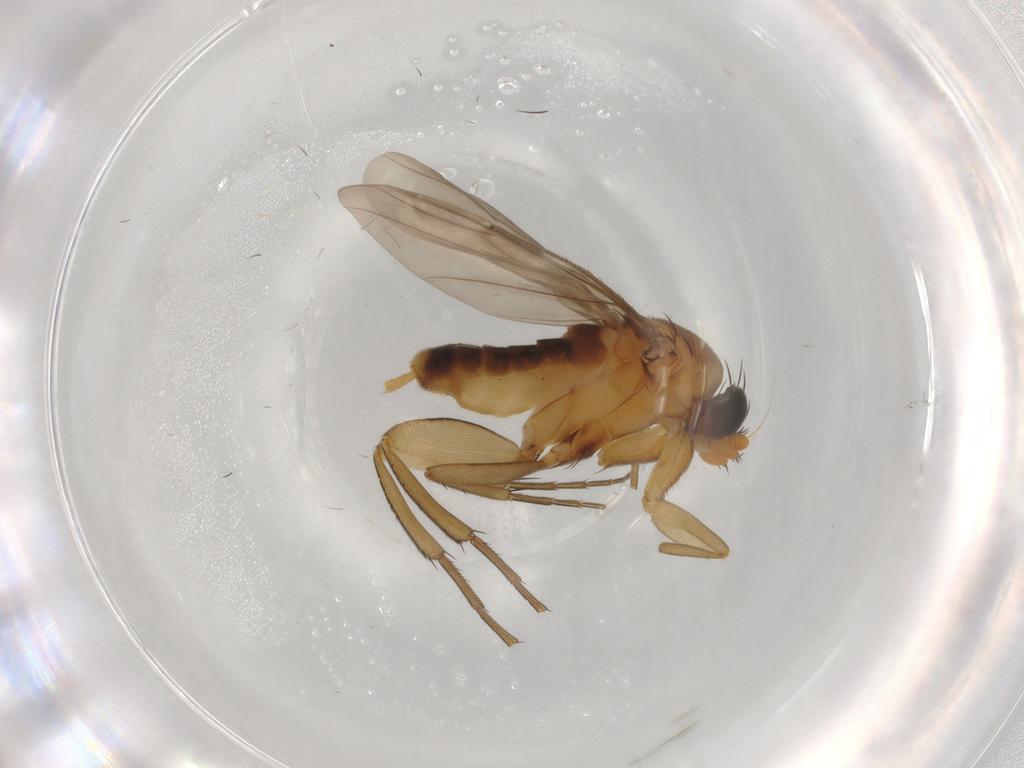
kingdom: Animalia
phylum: Arthropoda
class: Insecta
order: Diptera
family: Cecidomyiidae
